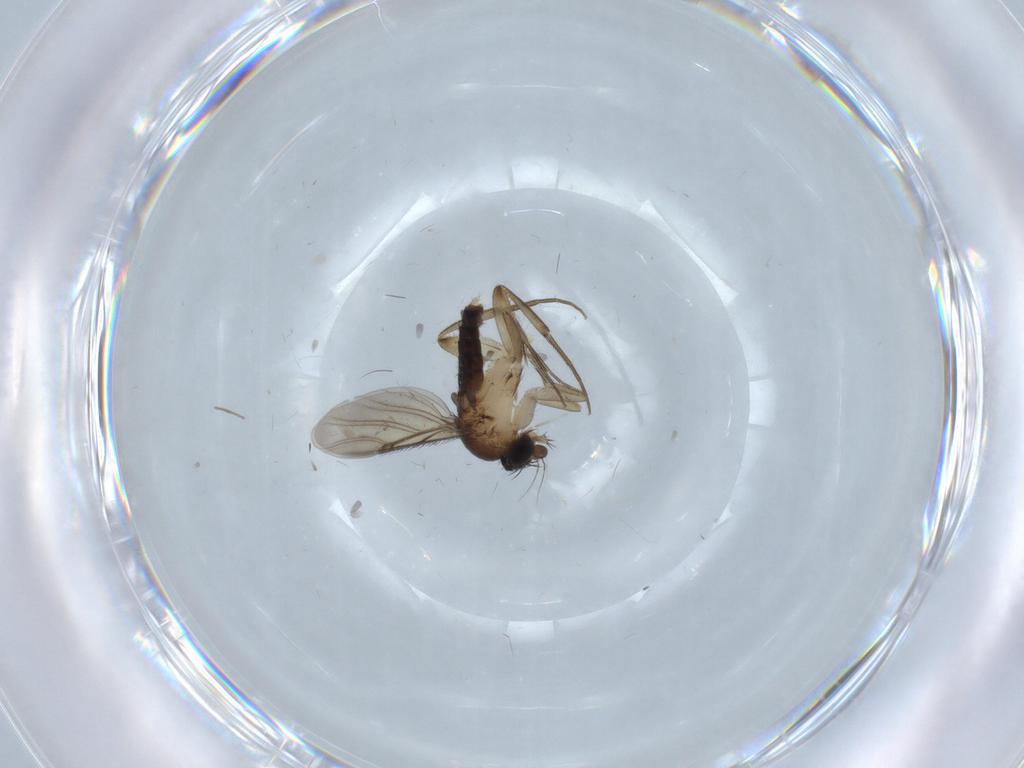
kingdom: Animalia
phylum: Arthropoda
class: Insecta
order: Diptera
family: Phoridae
